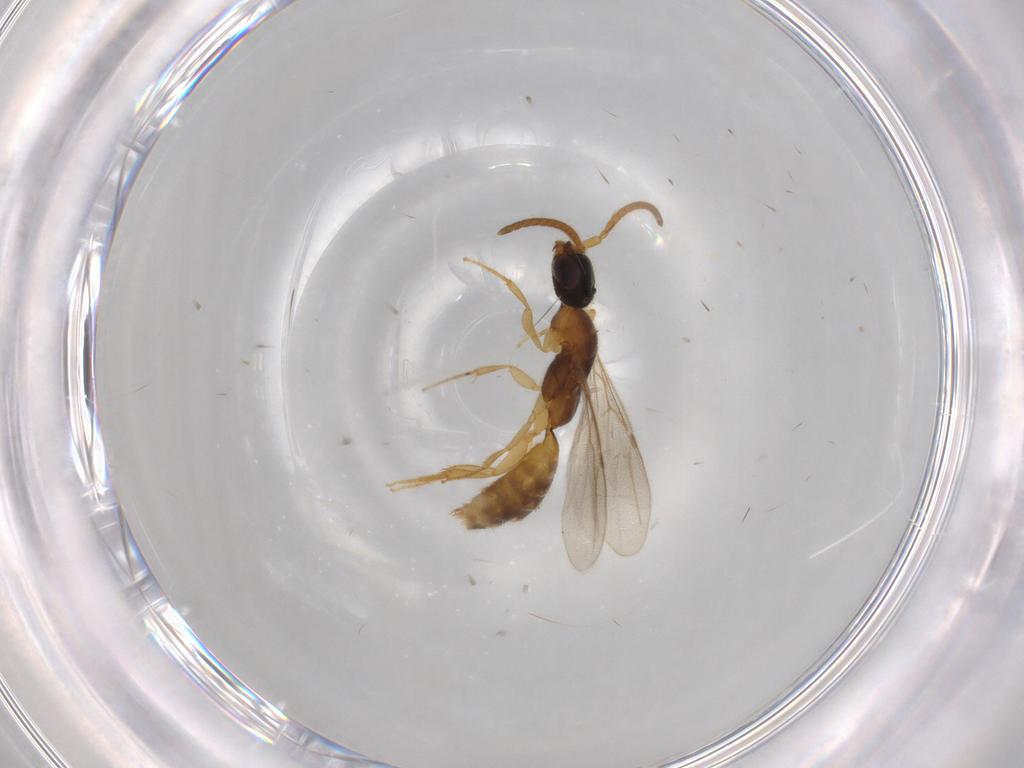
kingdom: Animalia
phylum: Arthropoda
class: Insecta
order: Hymenoptera
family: Bethylidae
